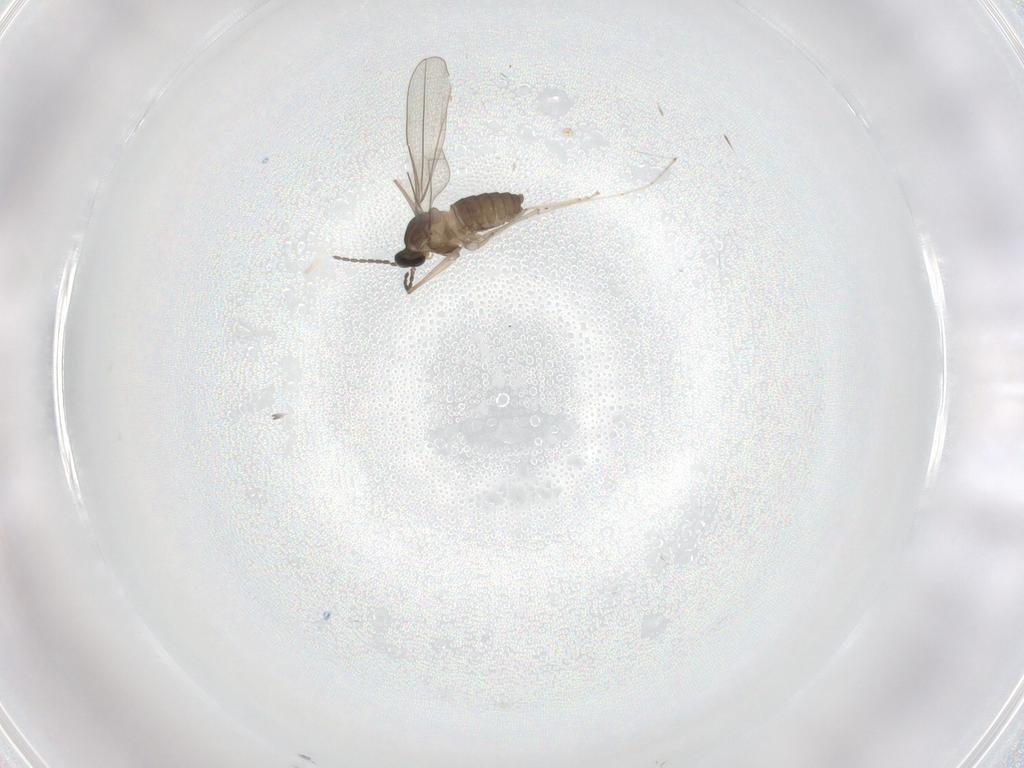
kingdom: Animalia
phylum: Arthropoda
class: Insecta
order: Diptera
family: Cecidomyiidae
